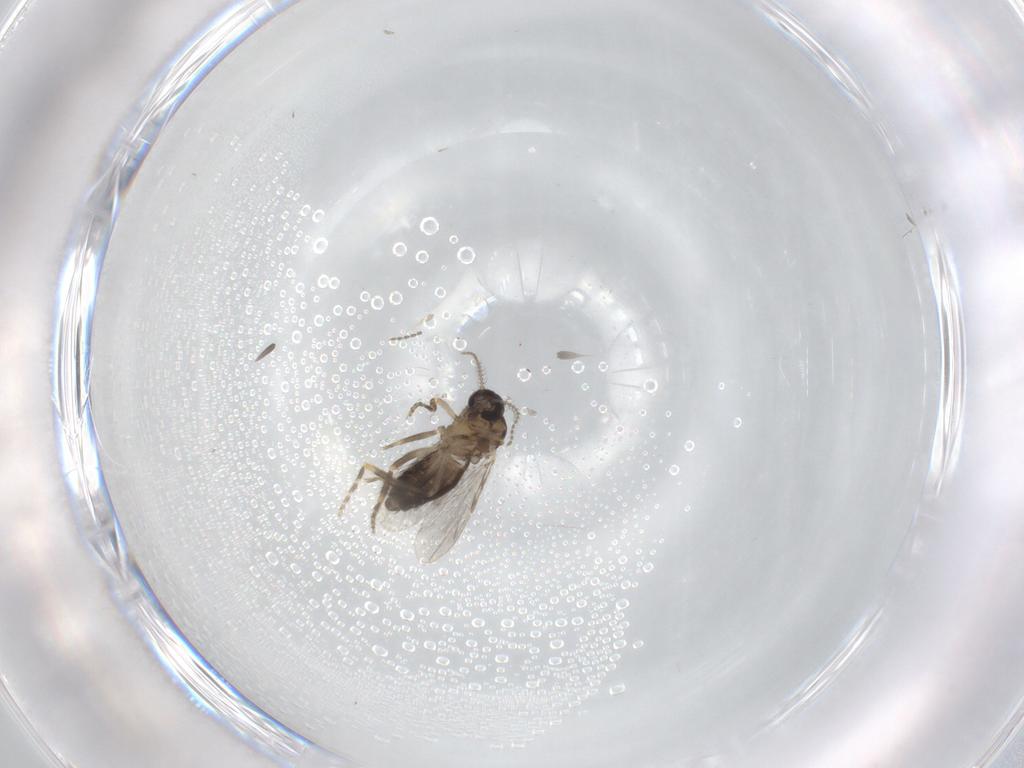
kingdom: Animalia
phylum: Arthropoda
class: Insecta
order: Diptera
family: Ceratopogonidae
